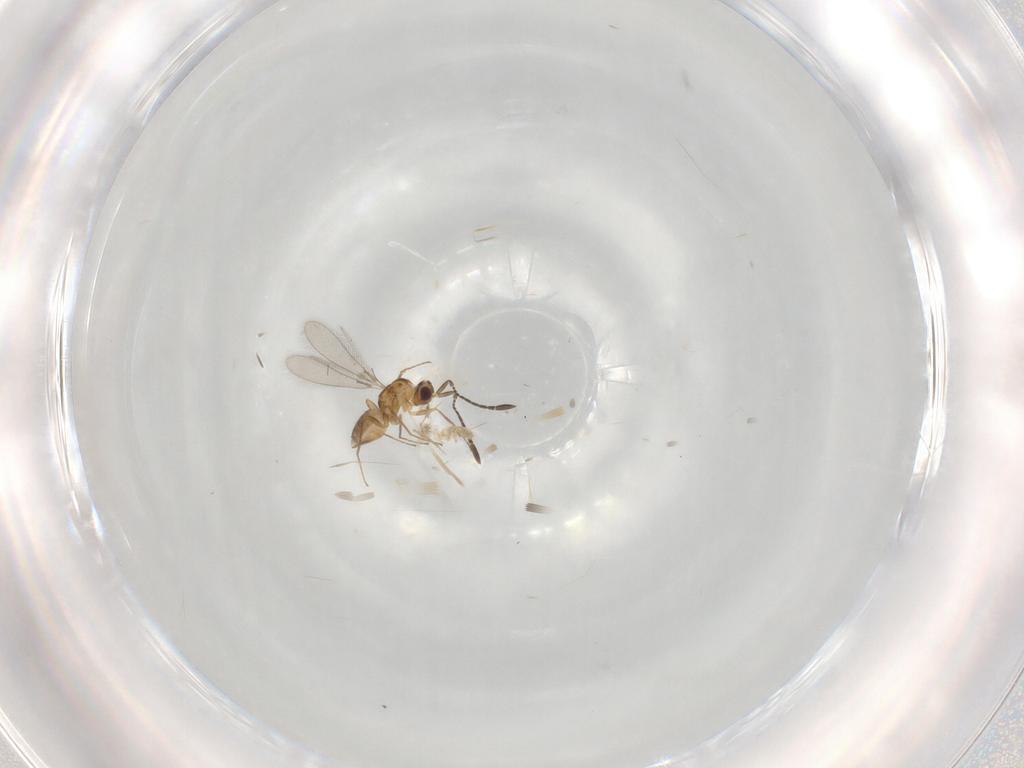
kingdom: Animalia
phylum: Arthropoda
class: Insecta
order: Hymenoptera
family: Mymaridae
